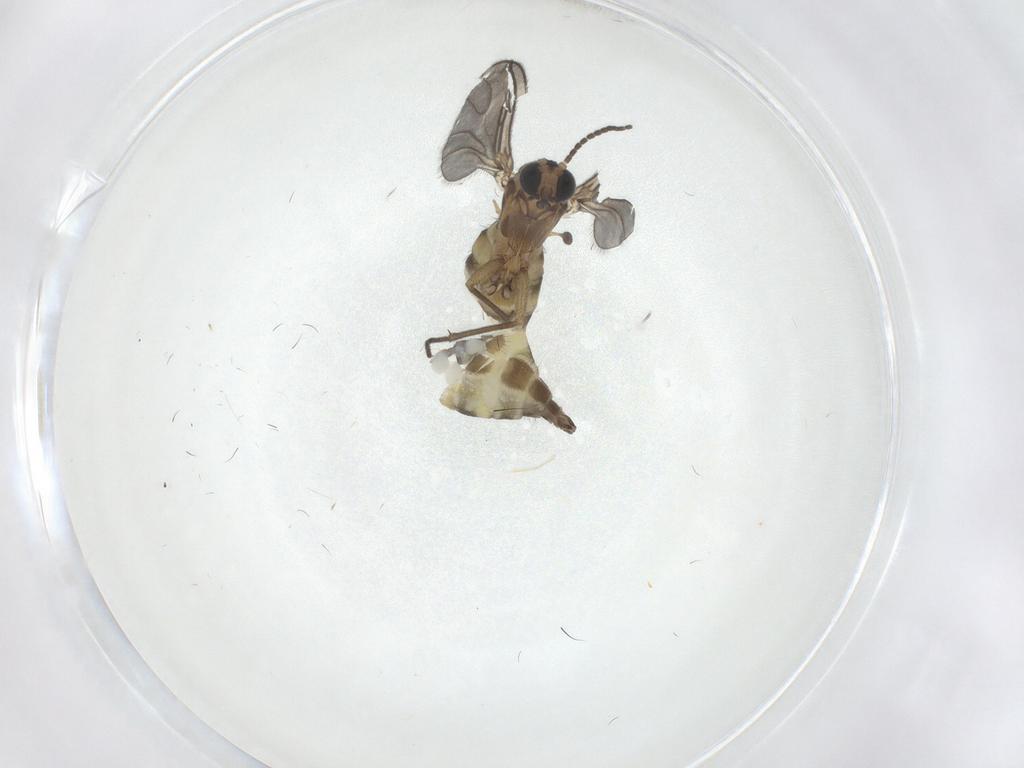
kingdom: Animalia
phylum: Arthropoda
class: Insecta
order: Diptera
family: Sciaridae
